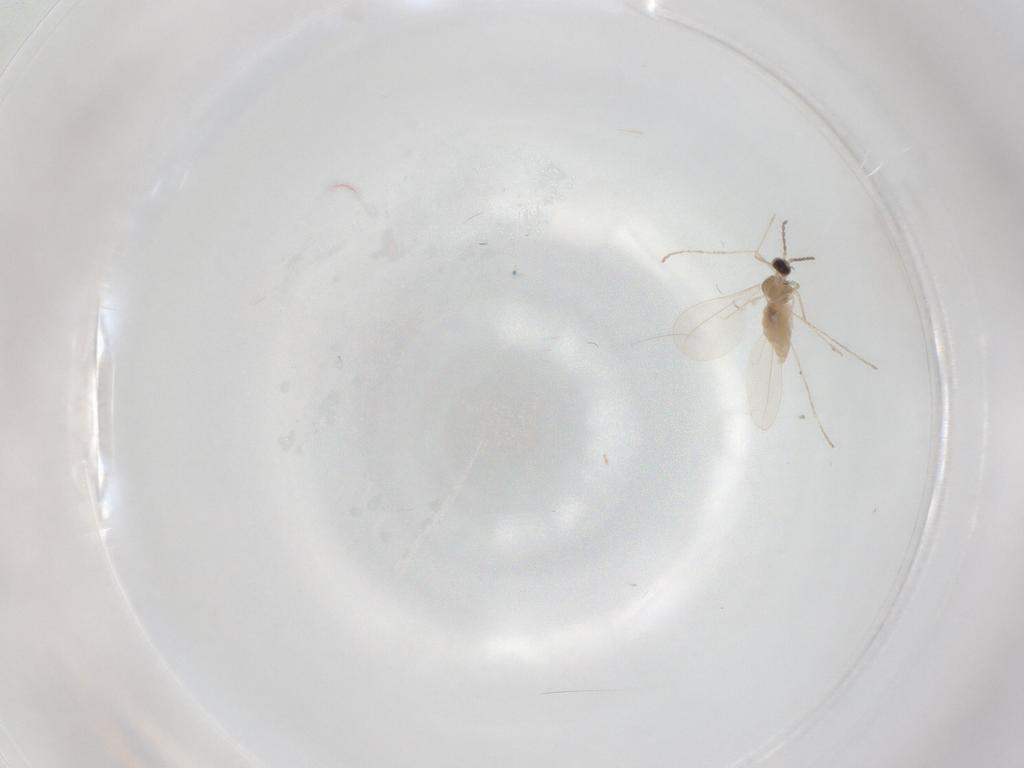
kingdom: Animalia
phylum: Arthropoda
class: Insecta
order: Diptera
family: Cecidomyiidae
